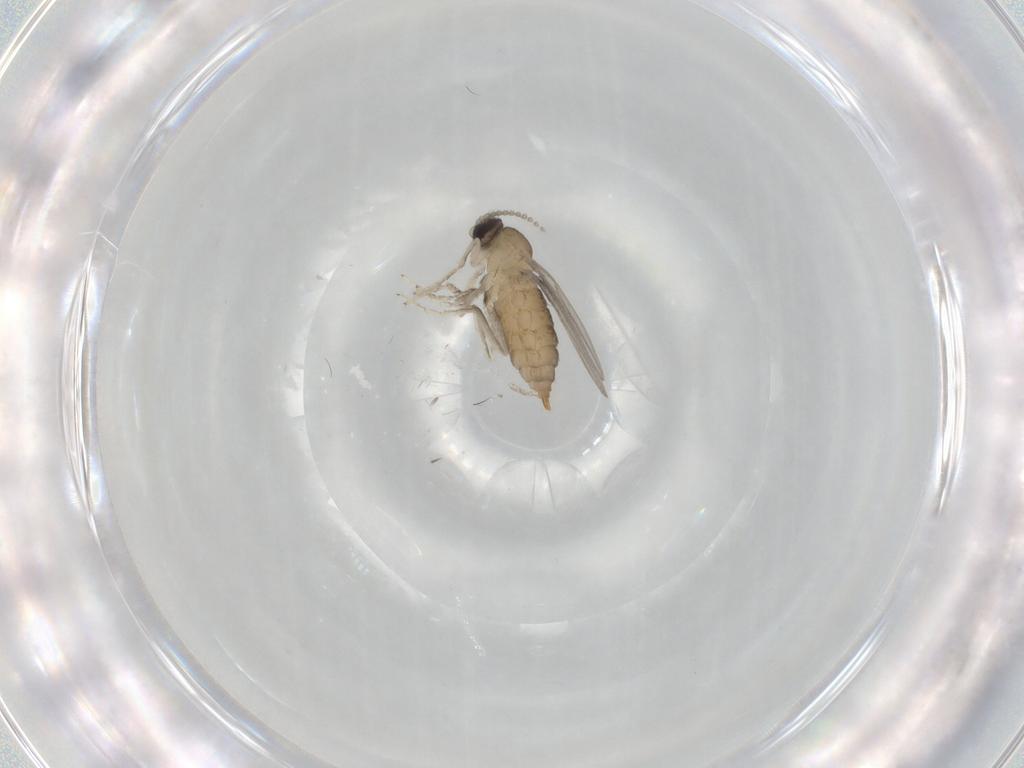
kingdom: Animalia
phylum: Arthropoda
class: Insecta
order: Diptera
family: Cecidomyiidae
